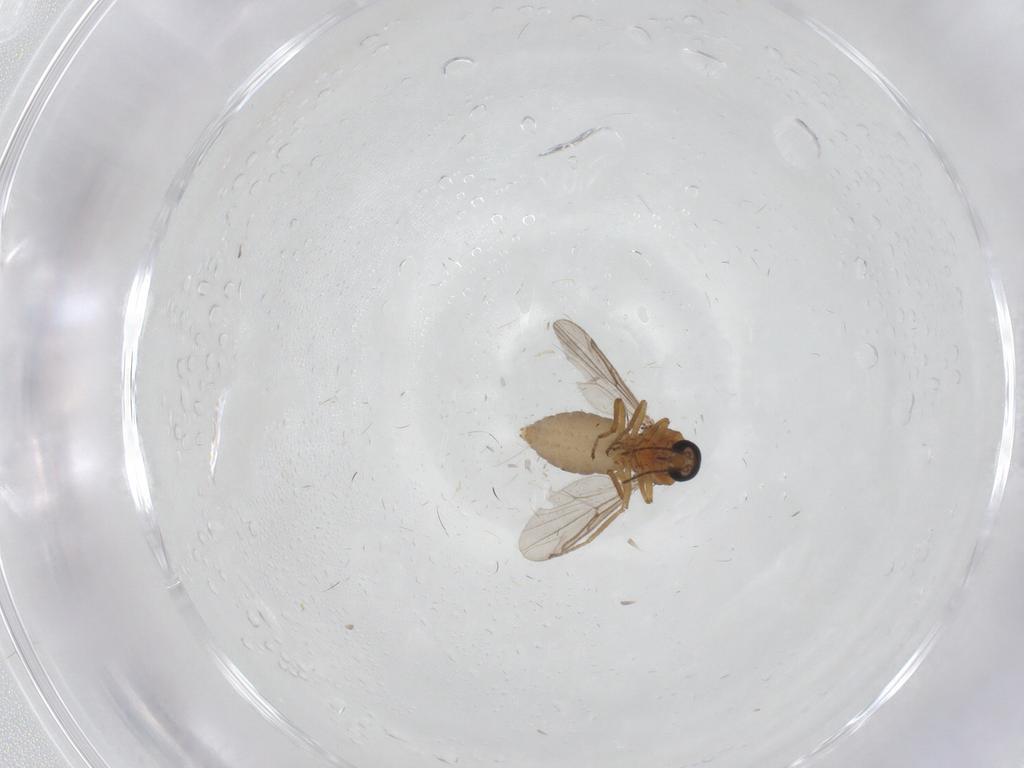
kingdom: Animalia
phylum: Arthropoda
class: Insecta
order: Diptera
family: Ceratopogonidae
